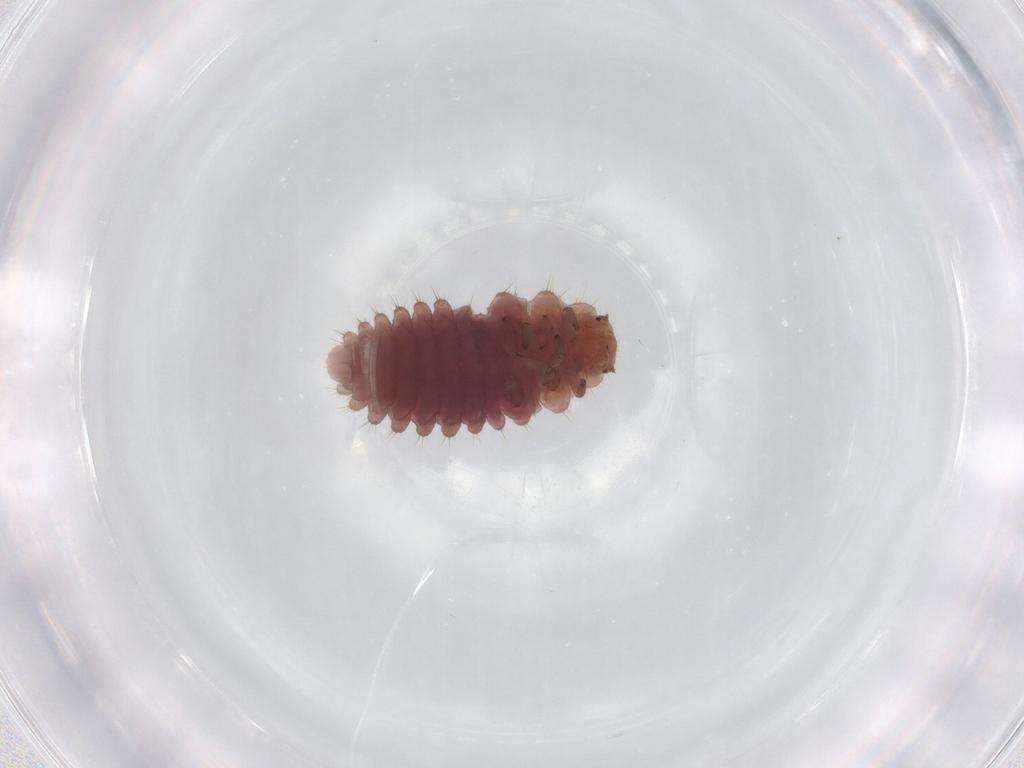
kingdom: Animalia
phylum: Arthropoda
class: Insecta
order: Coleoptera
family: Coccinellidae
